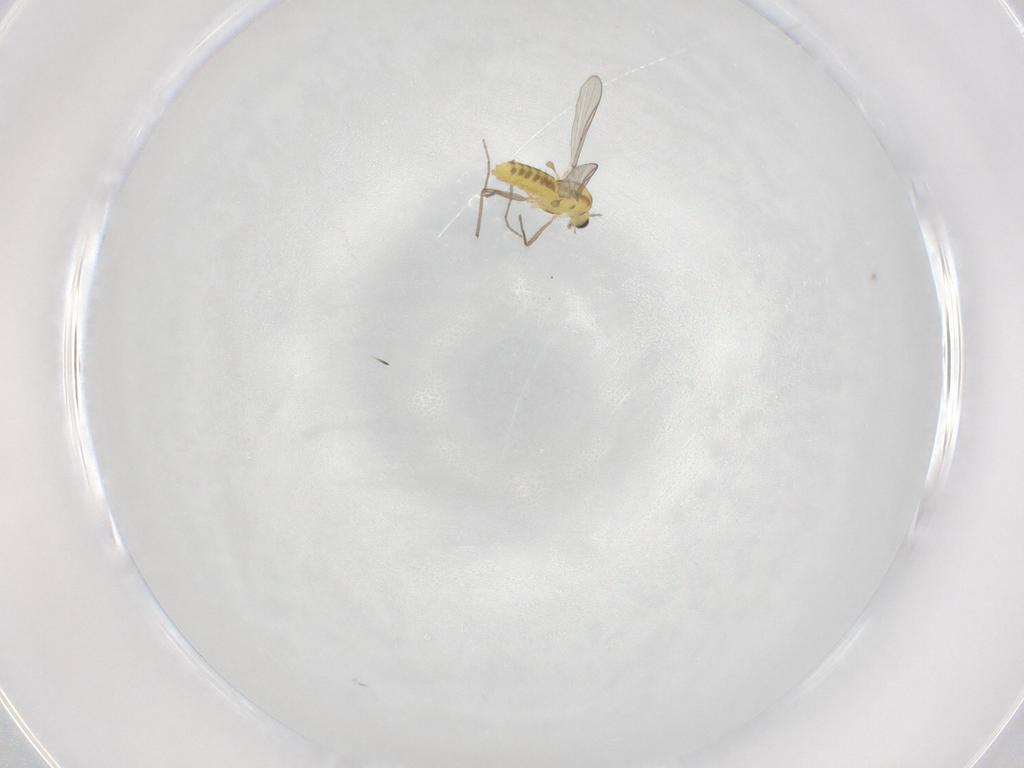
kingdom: Animalia
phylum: Arthropoda
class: Insecta
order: Diptera
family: Chironomidae
